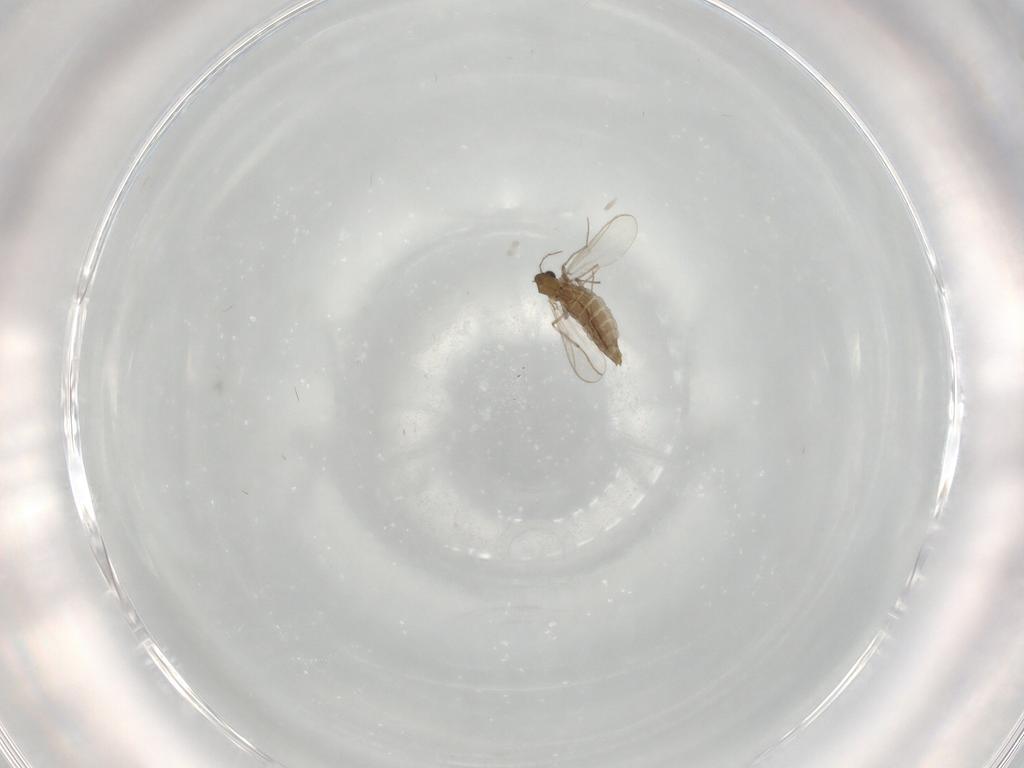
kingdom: Animalia
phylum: Arthropoda
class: Insecta
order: Diptera
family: Chironomidae
